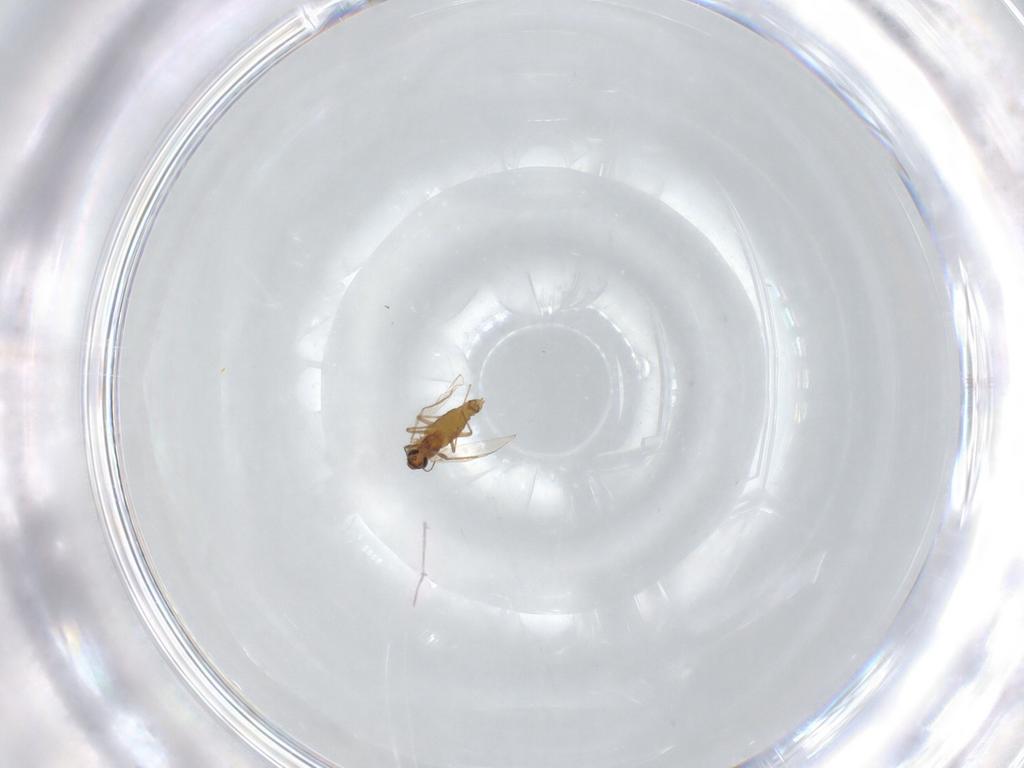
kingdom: Animalia
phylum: Arthropoda
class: Insecta
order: Diptera
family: Chironomidae
